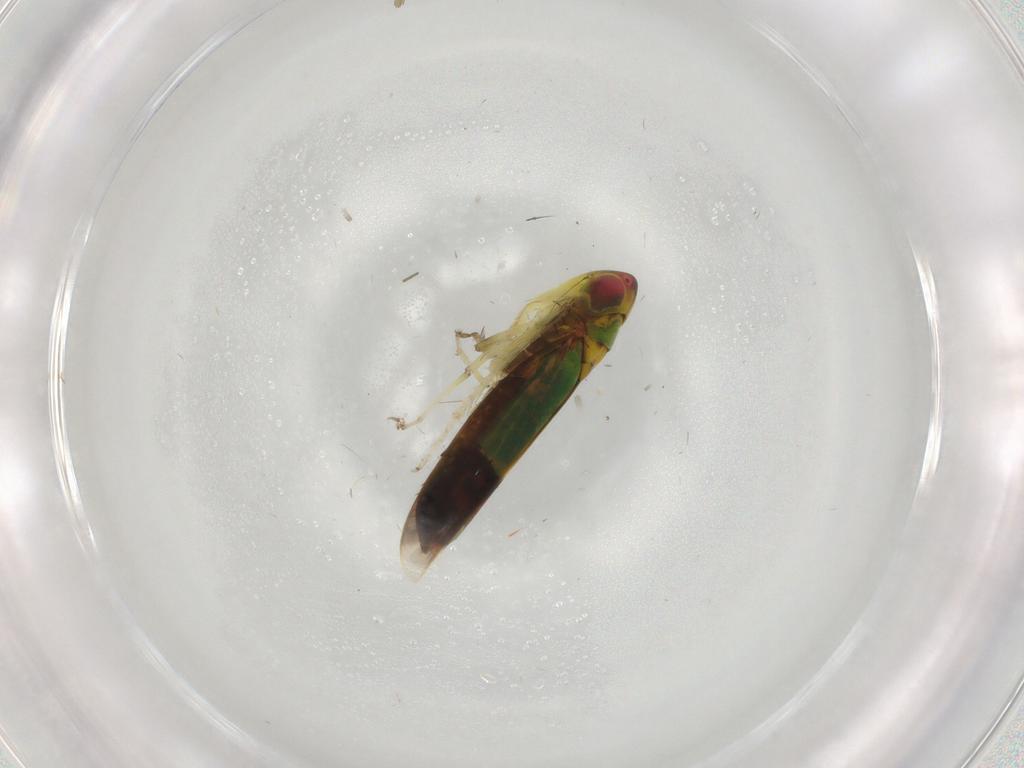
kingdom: Animalia
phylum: Arthropoda
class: Insecta
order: Hemiptera
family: Cicadellidae
